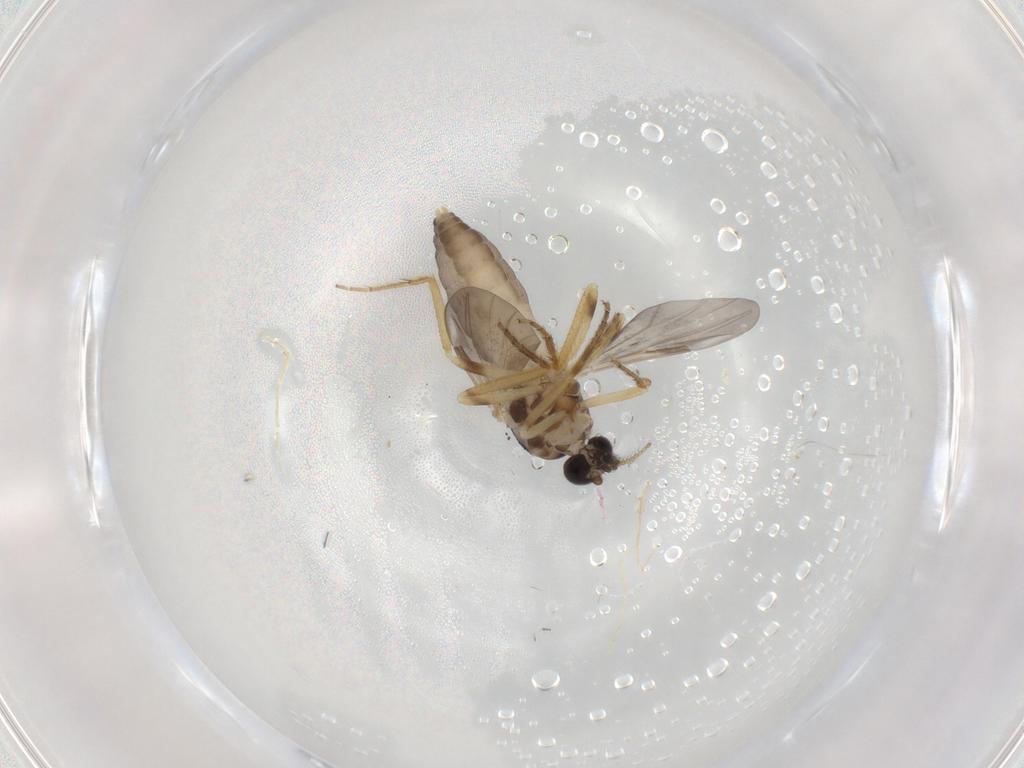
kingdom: Animalia
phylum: Arthropoda
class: Insecta
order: Diptera
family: Ceratopogonidae
